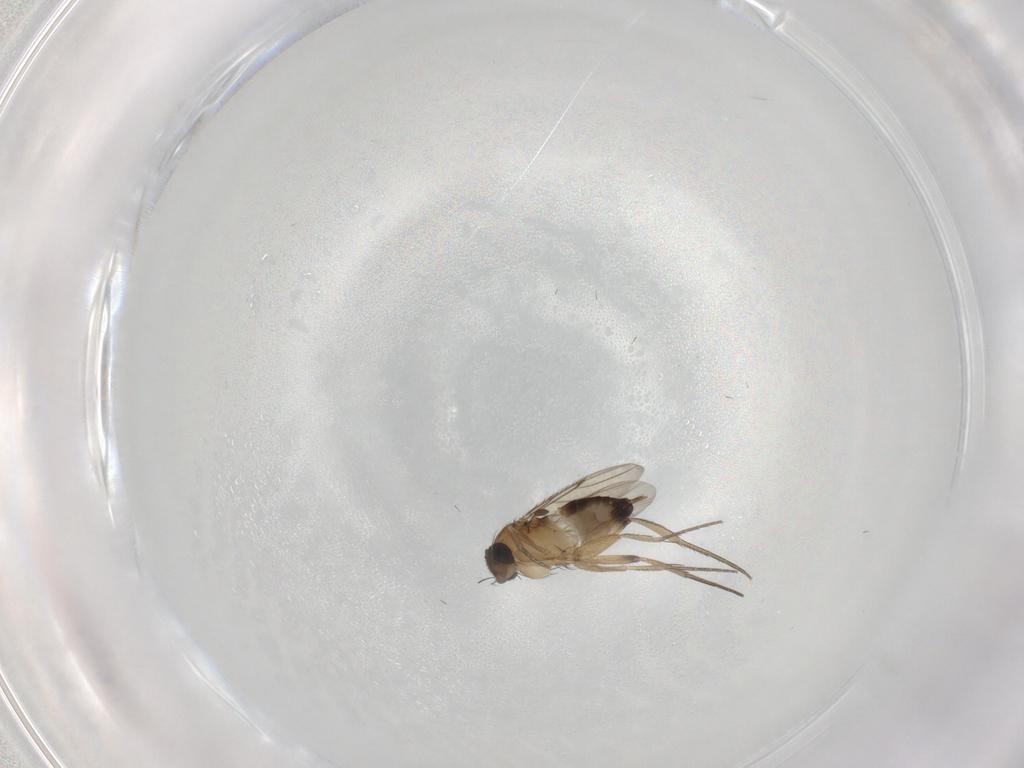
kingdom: Animalia
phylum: Arthropoda
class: Insecta
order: Diptera
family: Phoridae
